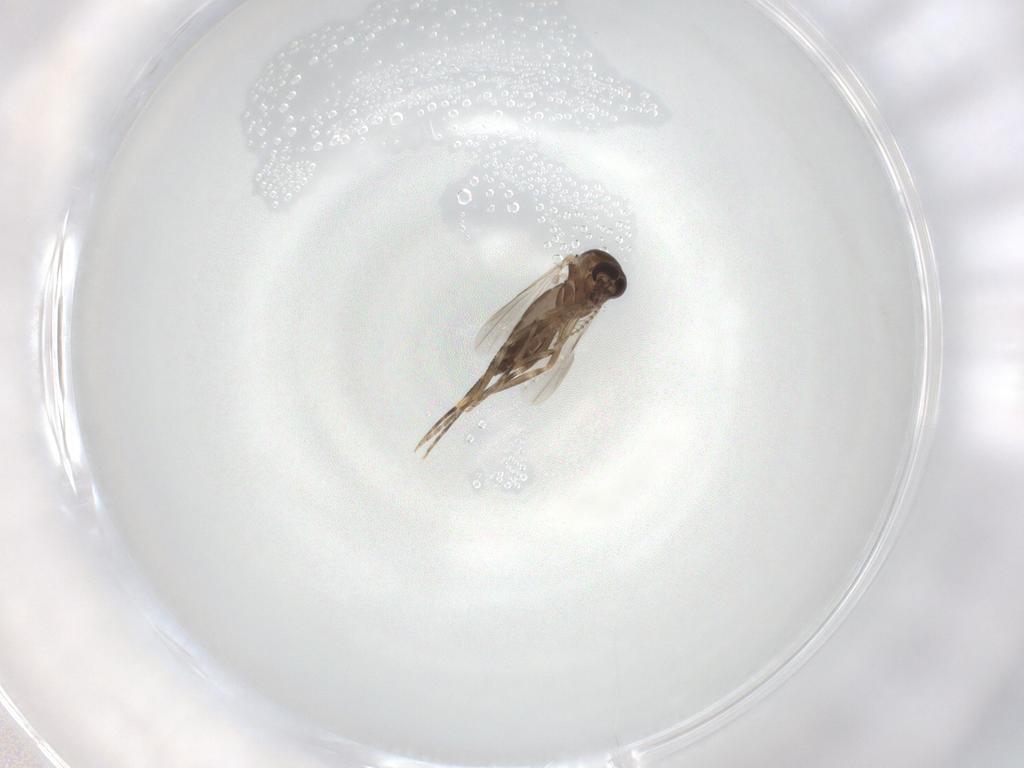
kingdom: Animalia
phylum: Arthropoda
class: Insecta
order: Diptera
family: Ceratopogonidae
